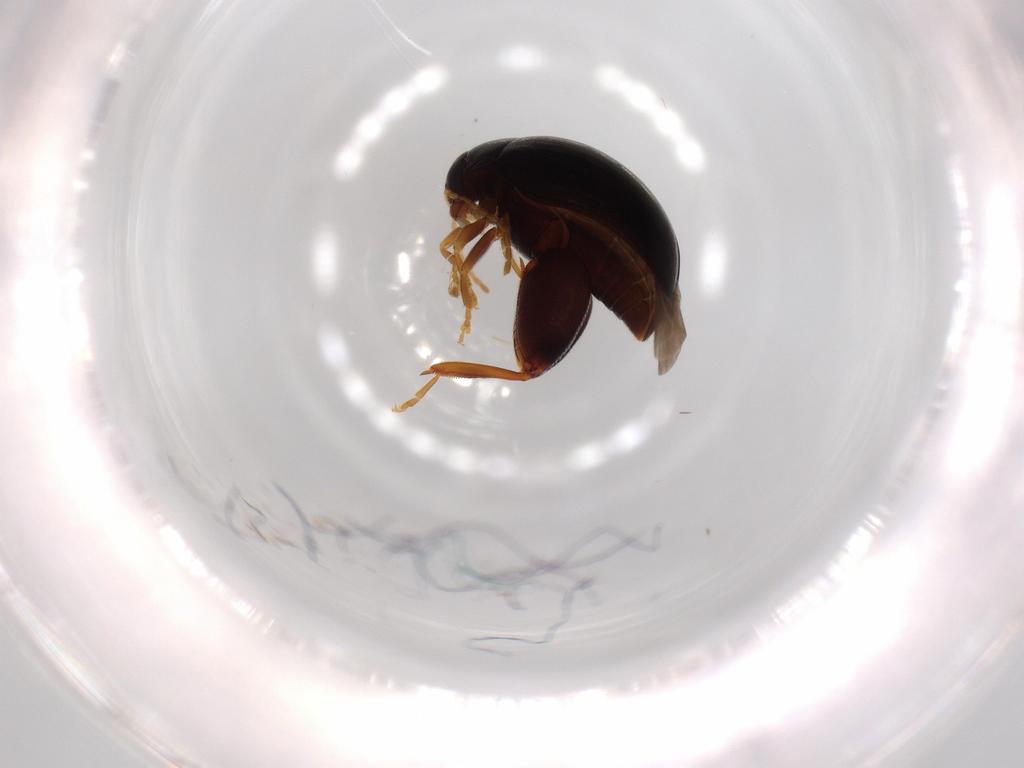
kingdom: Animalia
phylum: Arthropoda
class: Insecta
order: Coleoptera
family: Chrysomelidae
